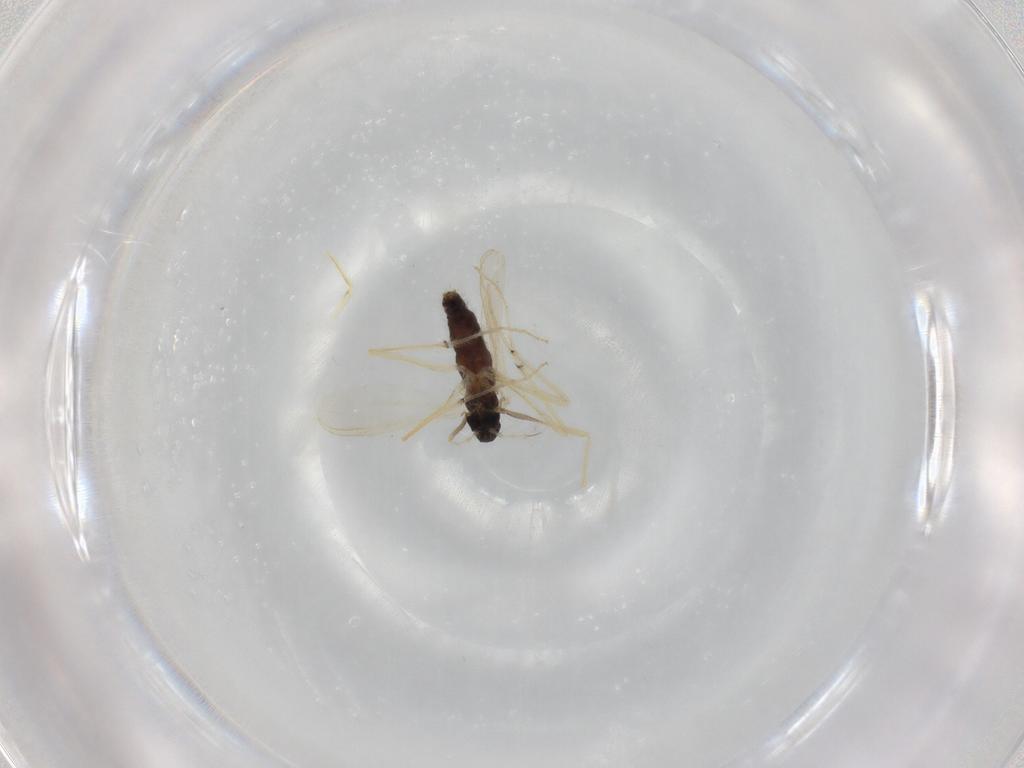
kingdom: Animalia
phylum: Arthropoda
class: Insecta
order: Diptera
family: Chironomidae
